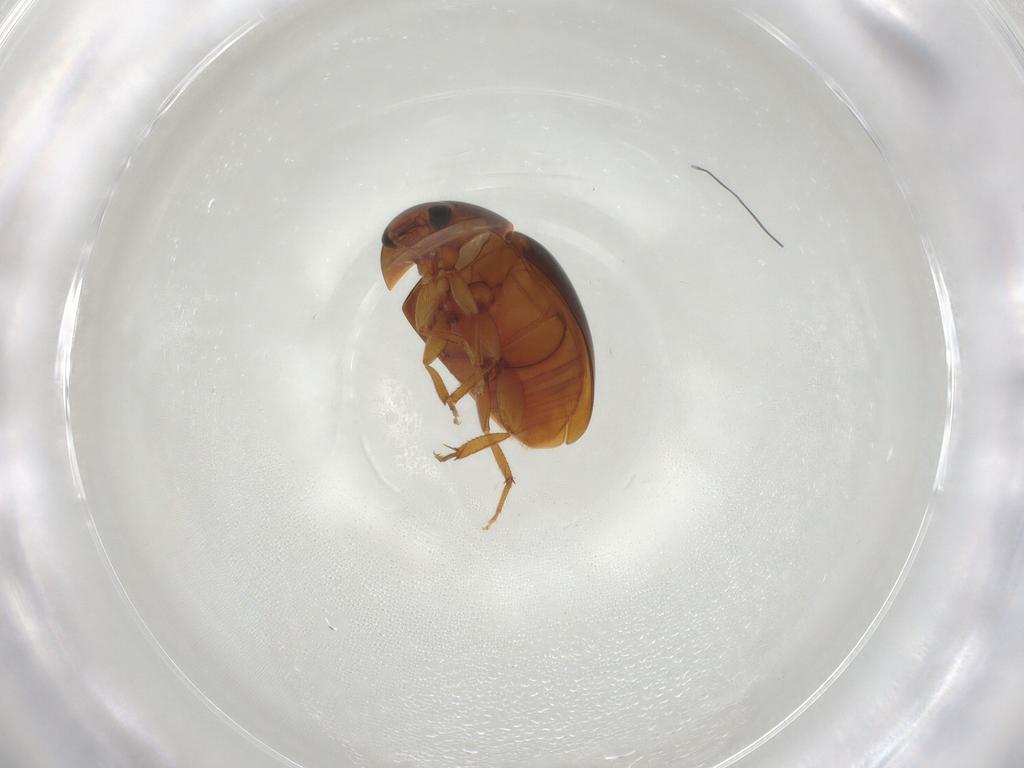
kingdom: Animalia
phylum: Arthropoda
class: Insecta
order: Coleoptera
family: Phalacridae
